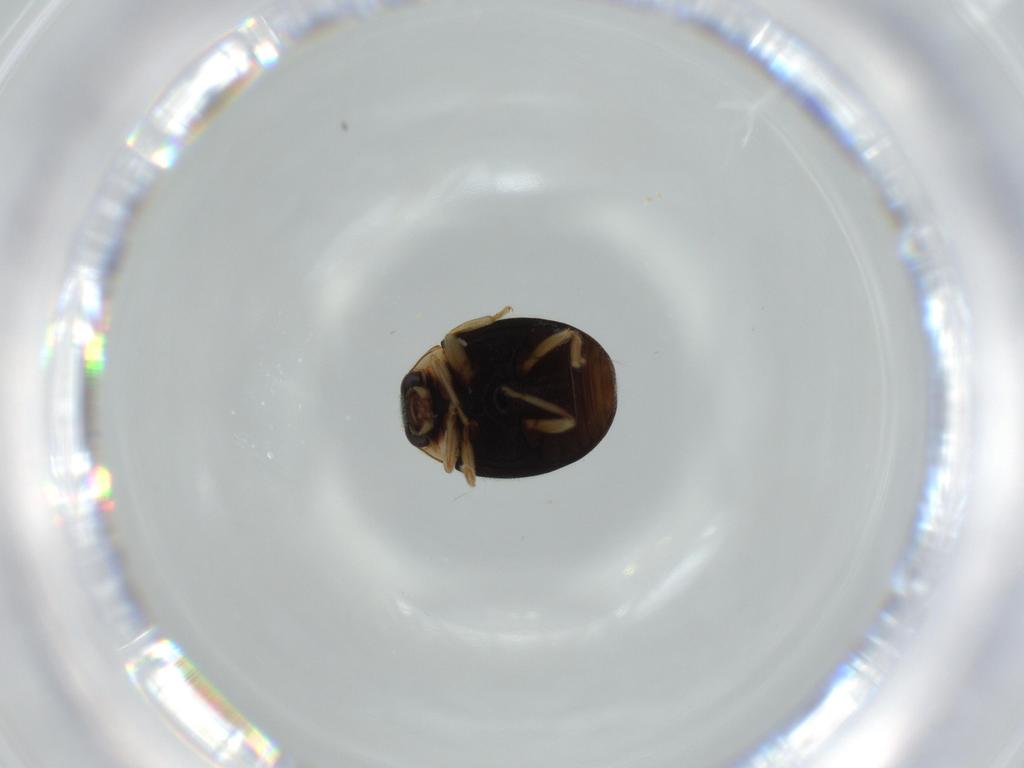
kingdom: Animalia
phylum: Arthropoda
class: Insecta
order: Coleoptera
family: Coccinellidae
